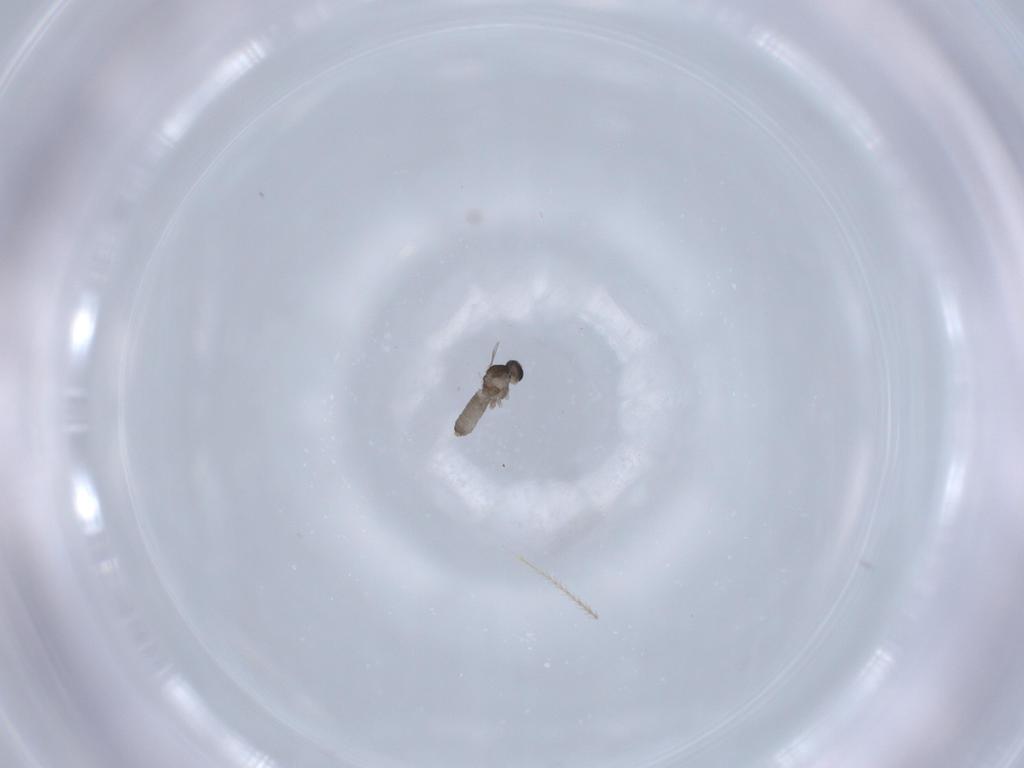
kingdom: Animalia
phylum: Arthropoda
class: Insecta
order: Diptera
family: Cecidomyiidae
